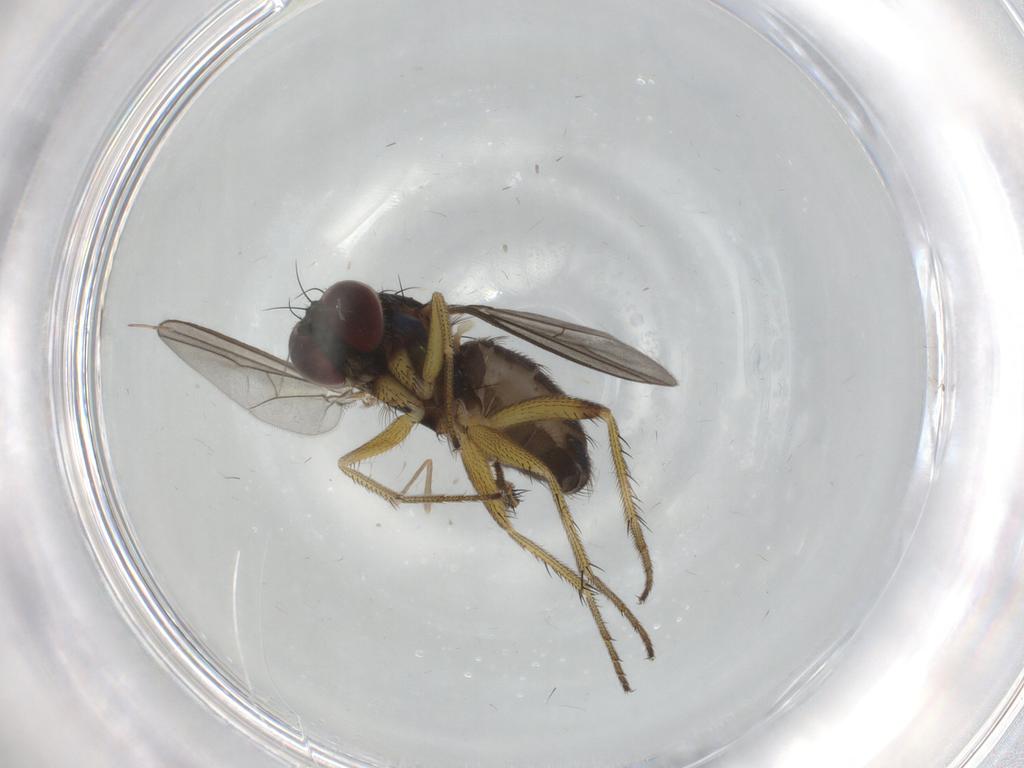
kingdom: Animalia
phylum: Arthropoda
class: Insecta
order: Diptera
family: Dolichopodidae
